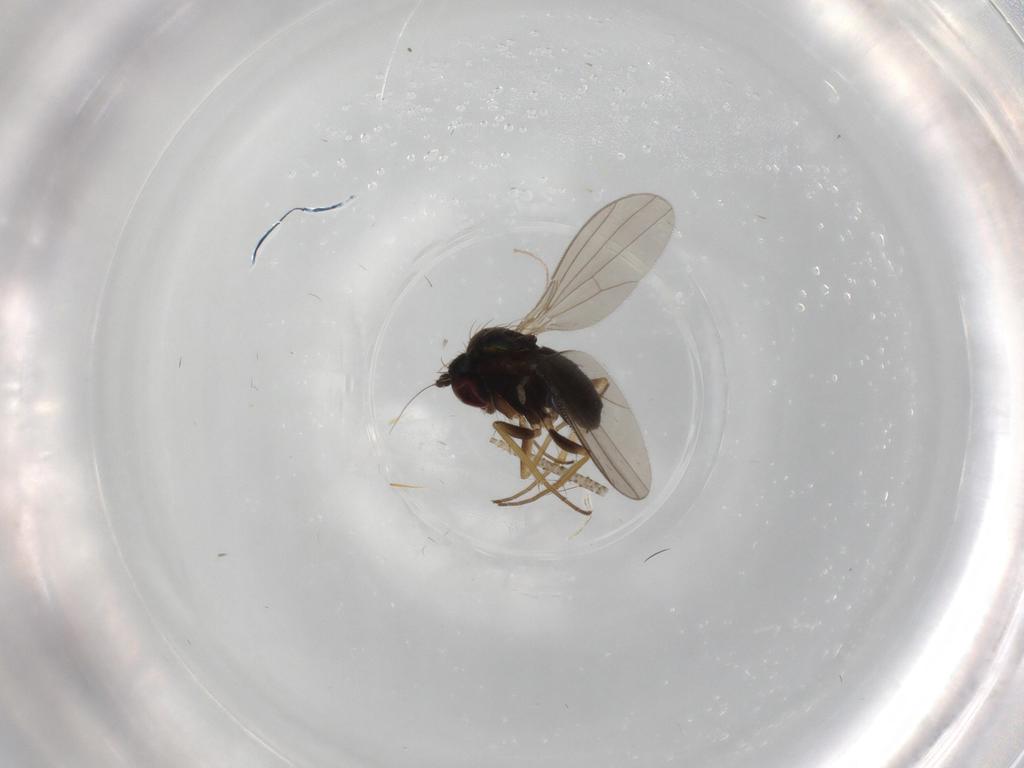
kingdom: Animalia
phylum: Arthropoda
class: Insecta
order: Diptera
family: Dolichopodidae
